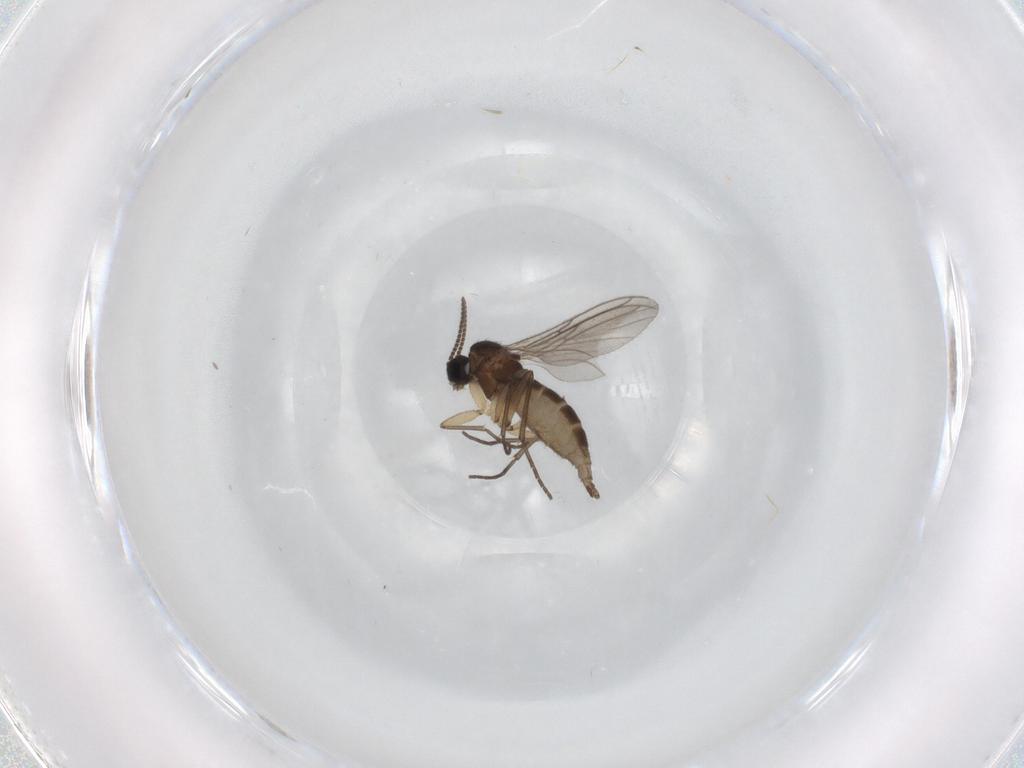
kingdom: Animalia
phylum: Arthropoda
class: Insecta
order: Diptera
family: Sciaridae
